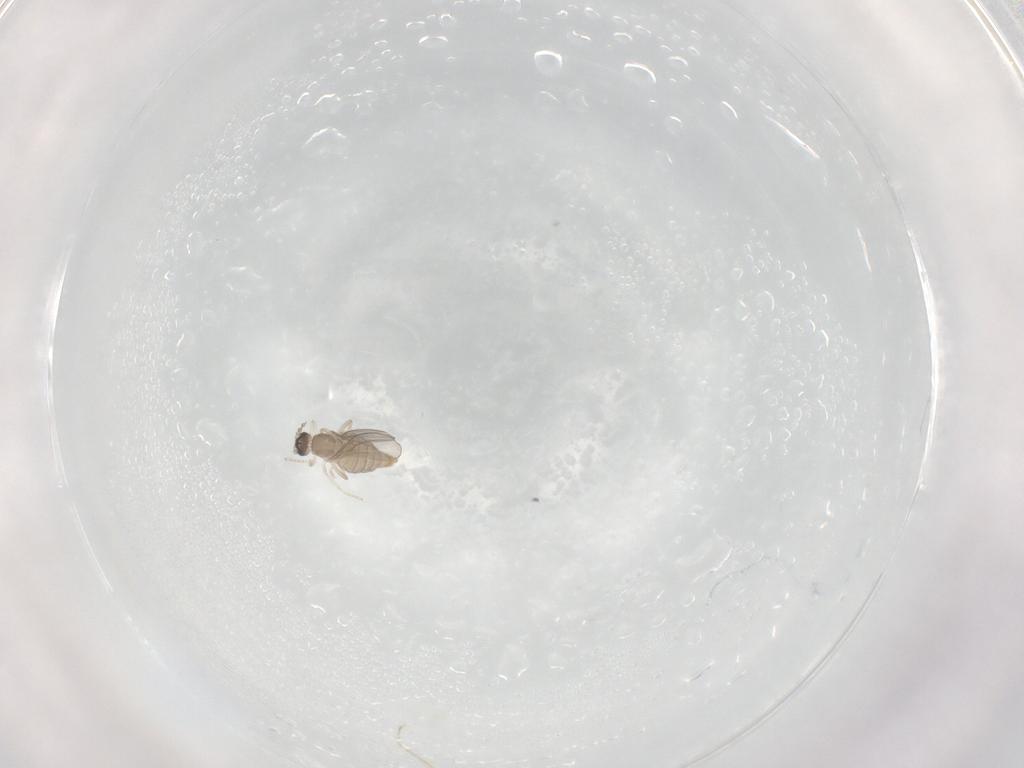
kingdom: Animalia
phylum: Arthropoda
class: Insecta
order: Diptera
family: Cecidomyiidae
